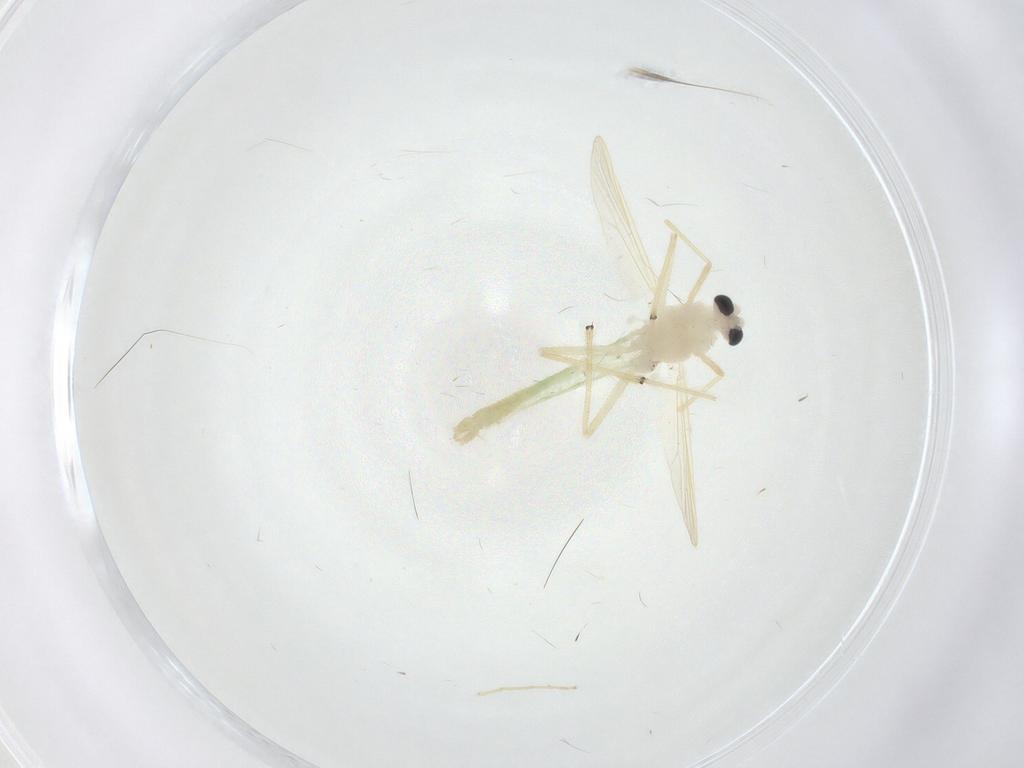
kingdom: Animalia
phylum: Arthropoda
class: Insecta
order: Diptera
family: Chironomidae
